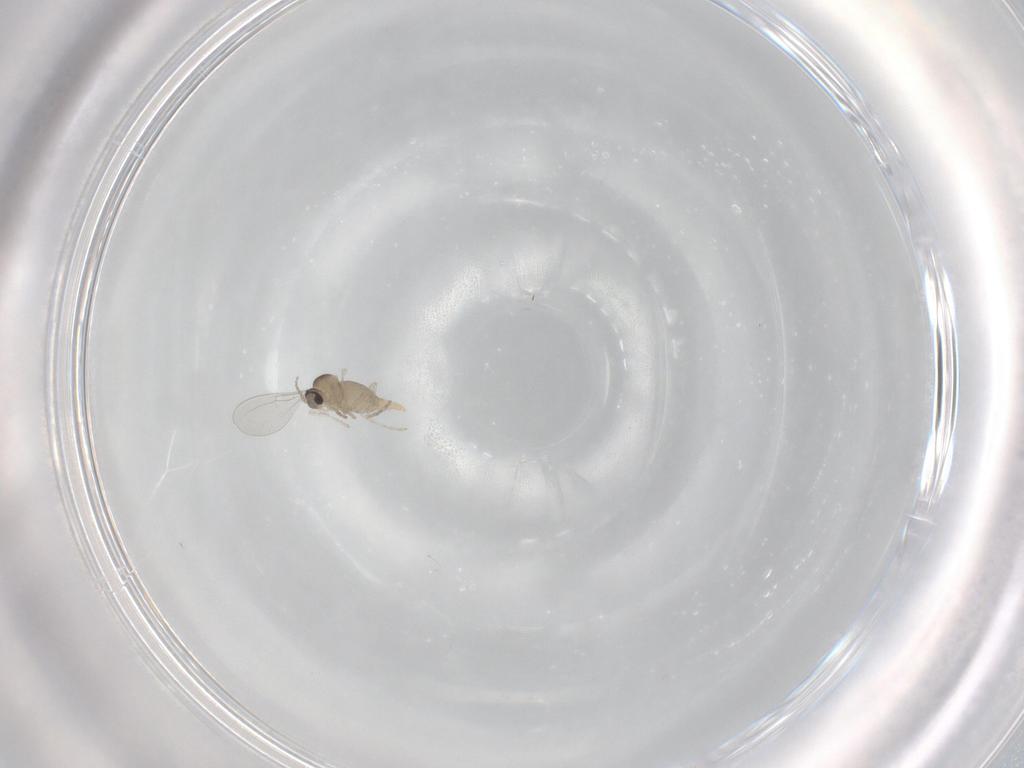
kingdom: Animalia
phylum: Arthropoda
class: Insecta
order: Diptera
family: Cecidomyiidae
